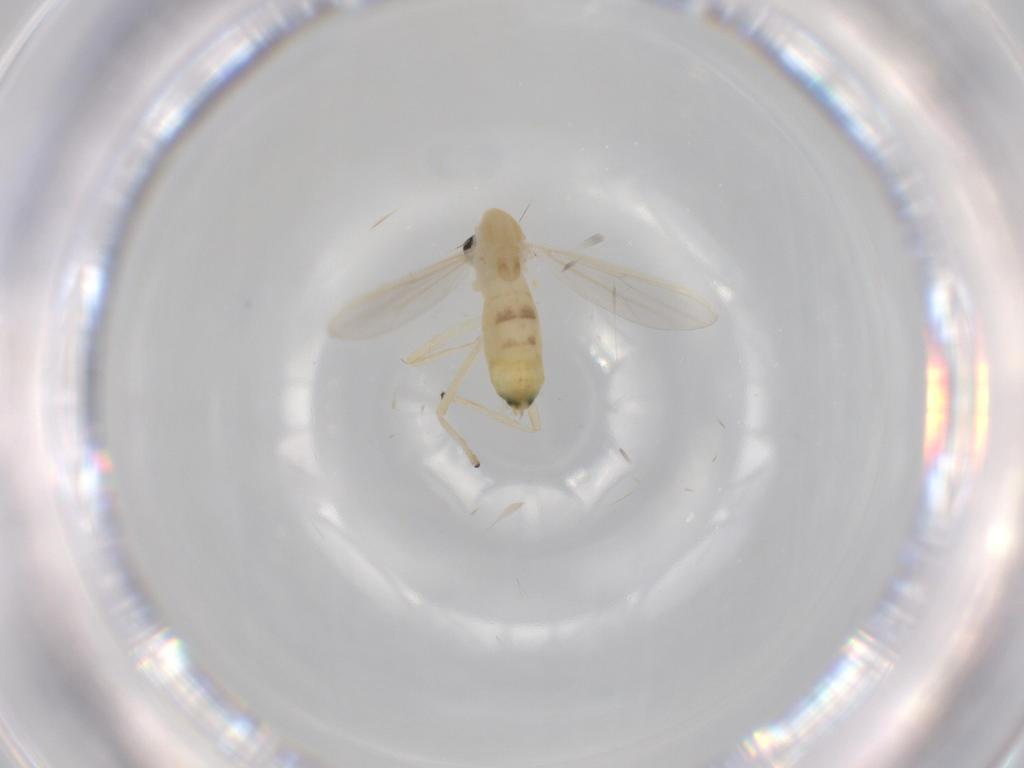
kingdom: Animalia
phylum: Arthropoda
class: Insecta
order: Diptera
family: Chironomidae
